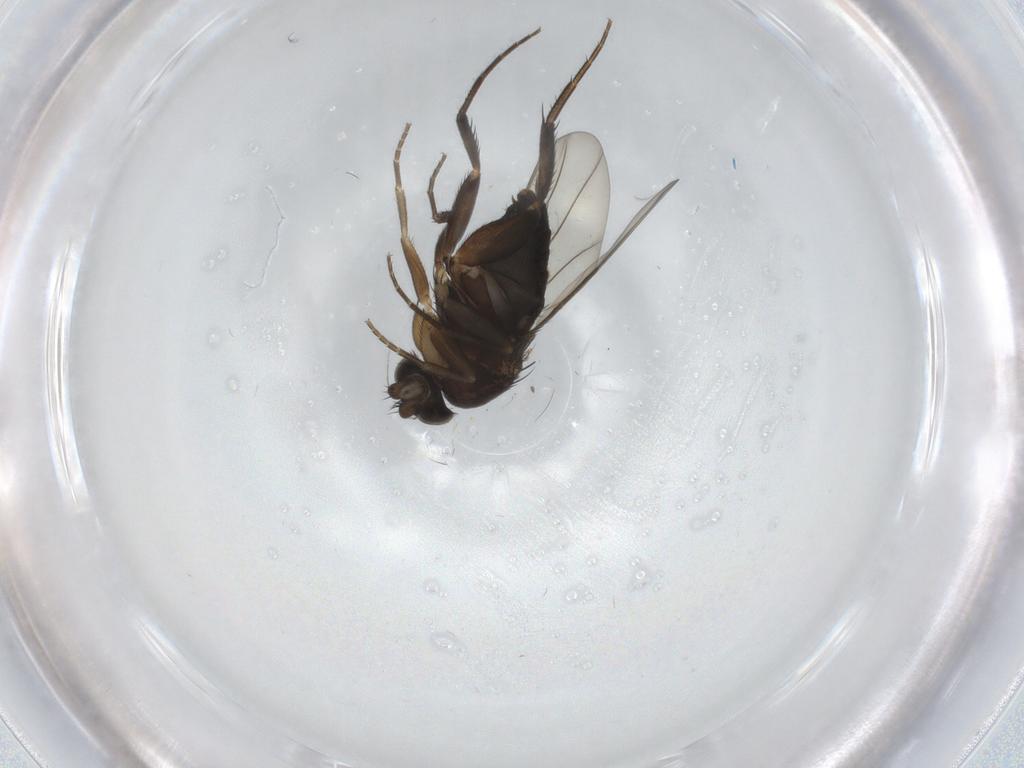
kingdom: Animalia
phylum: Arthropoda
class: Insecta
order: Diptera
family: Phoridae
